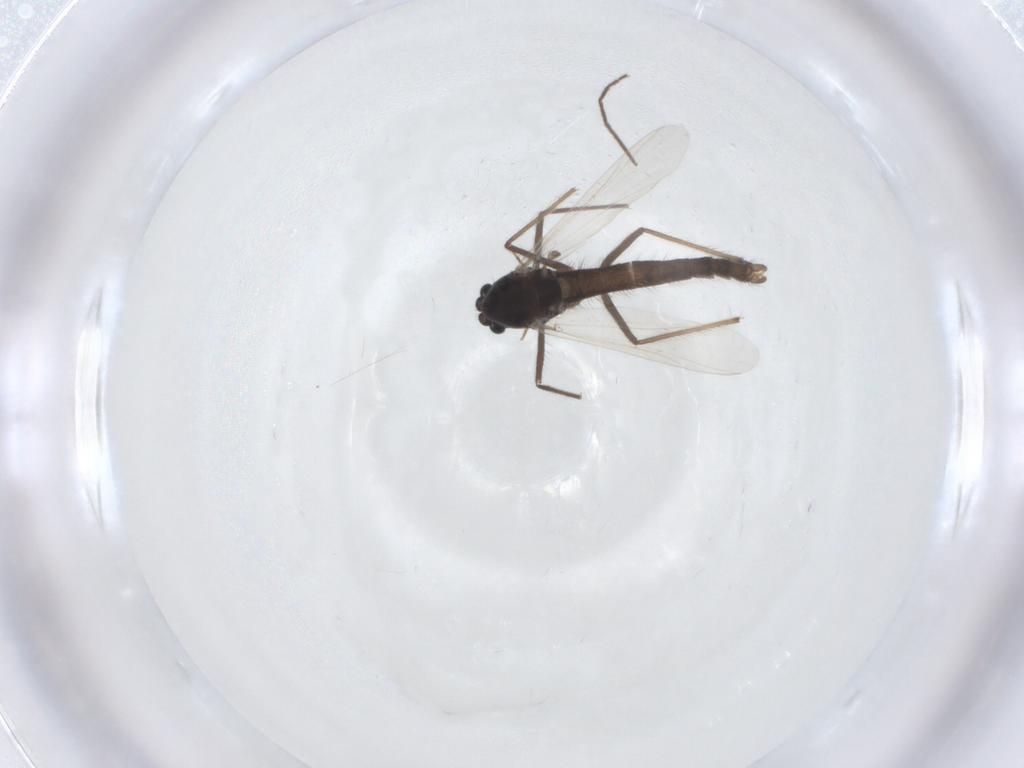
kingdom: Animalia
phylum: Arthropoda
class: Insecta
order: Diptera
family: Chironomidae
